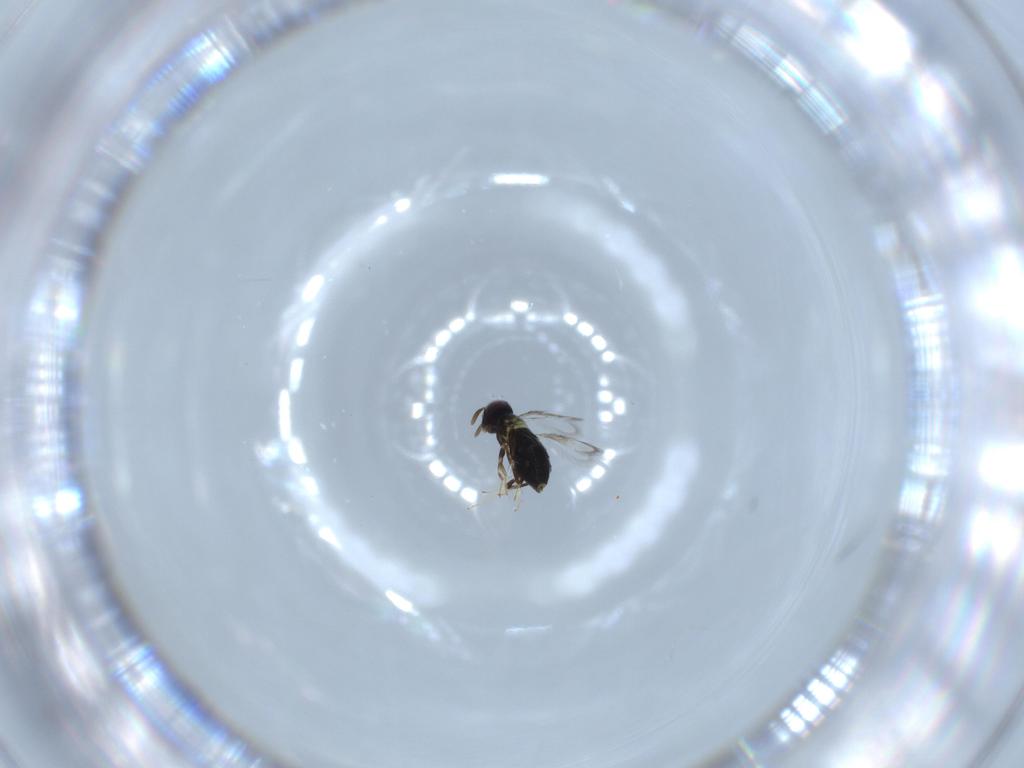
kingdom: Animalia
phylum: Arthropoda
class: Insecta
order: Hymenoptera
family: Signiphoridae
